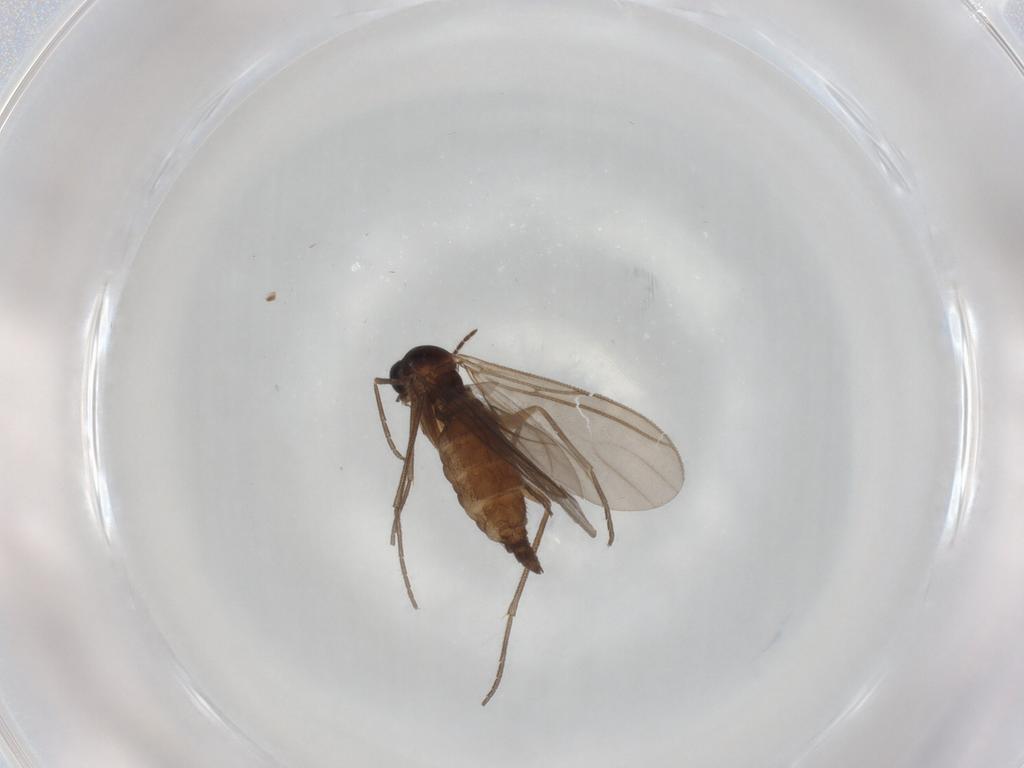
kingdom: Animalia
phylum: Arthropoda
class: Insecta
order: Diptera
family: Sciaridae
